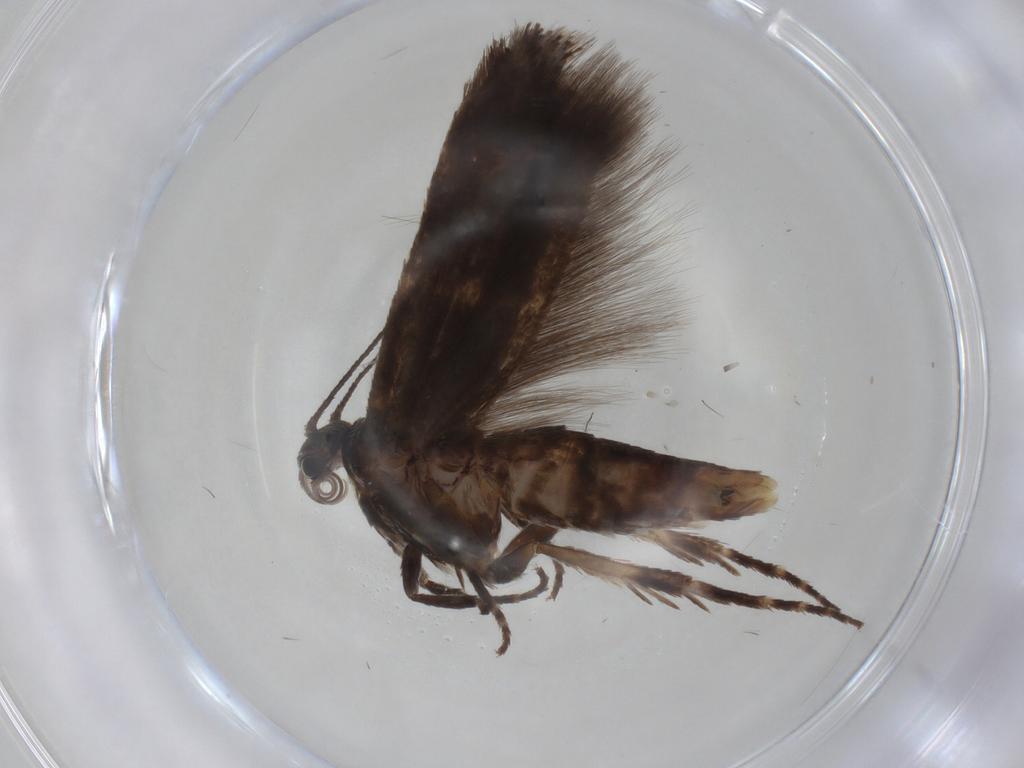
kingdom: Animalia
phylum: Arthropoda
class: Insecta
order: Lepidoptera
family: Scythrididae
